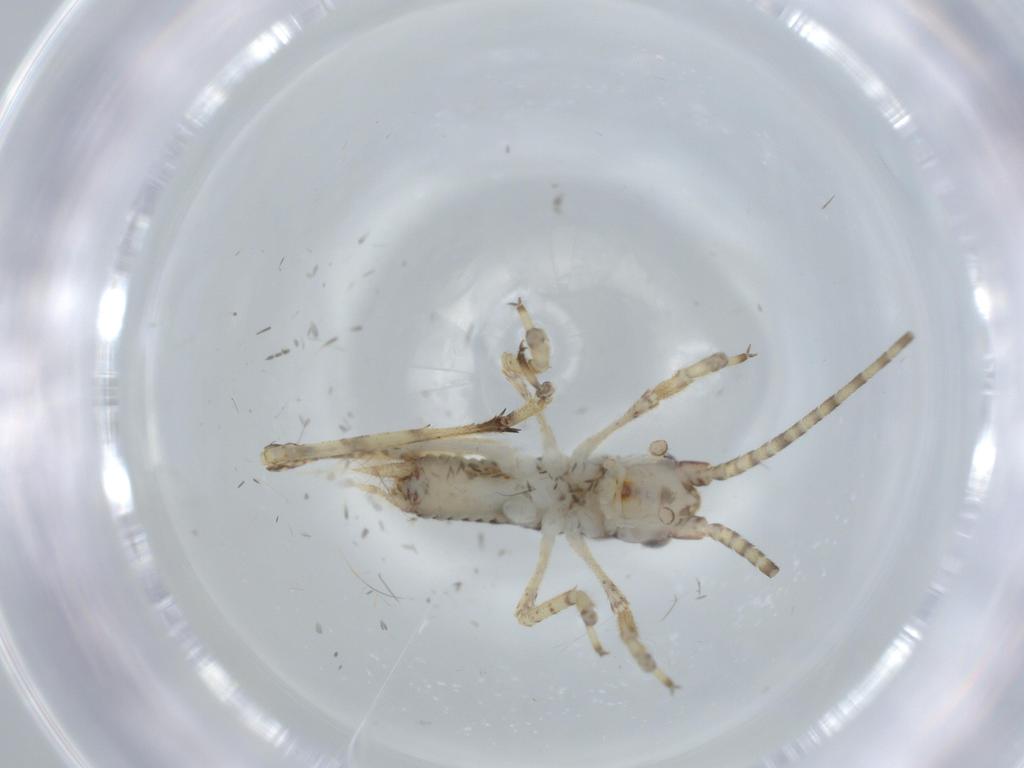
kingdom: Animalia
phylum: Arthropoda
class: Insecta
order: Orthoptera
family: Gryllidae
